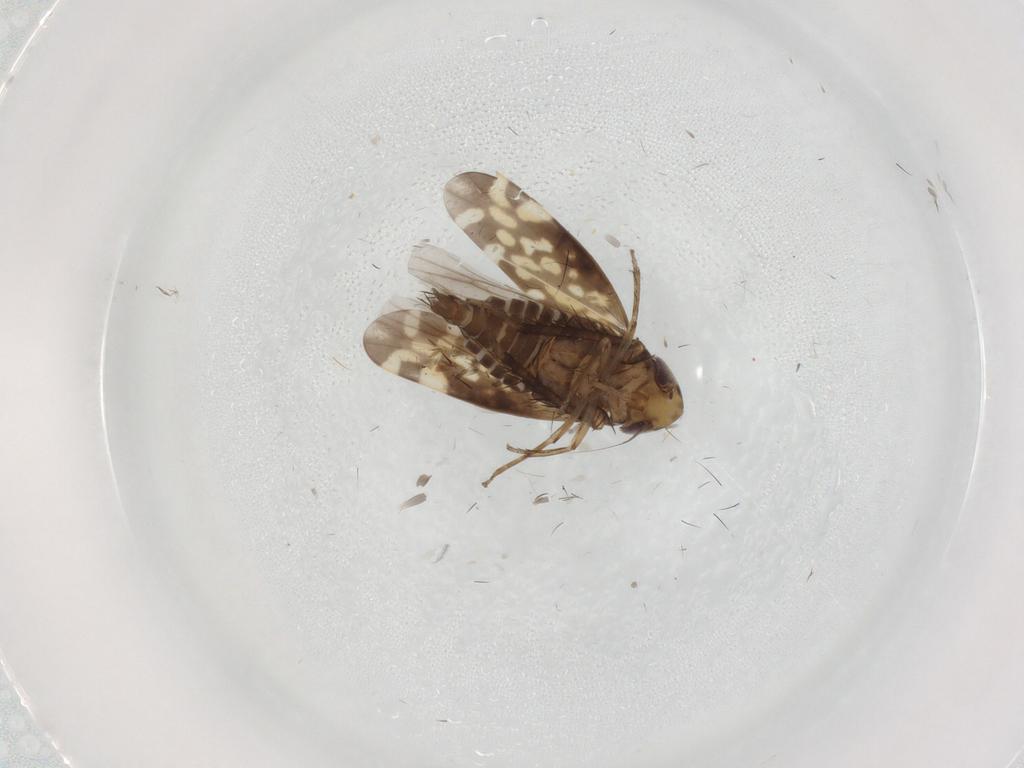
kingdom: Animalia
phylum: Arthropoda
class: Insecta
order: Hemiptera
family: Cicadellidae
